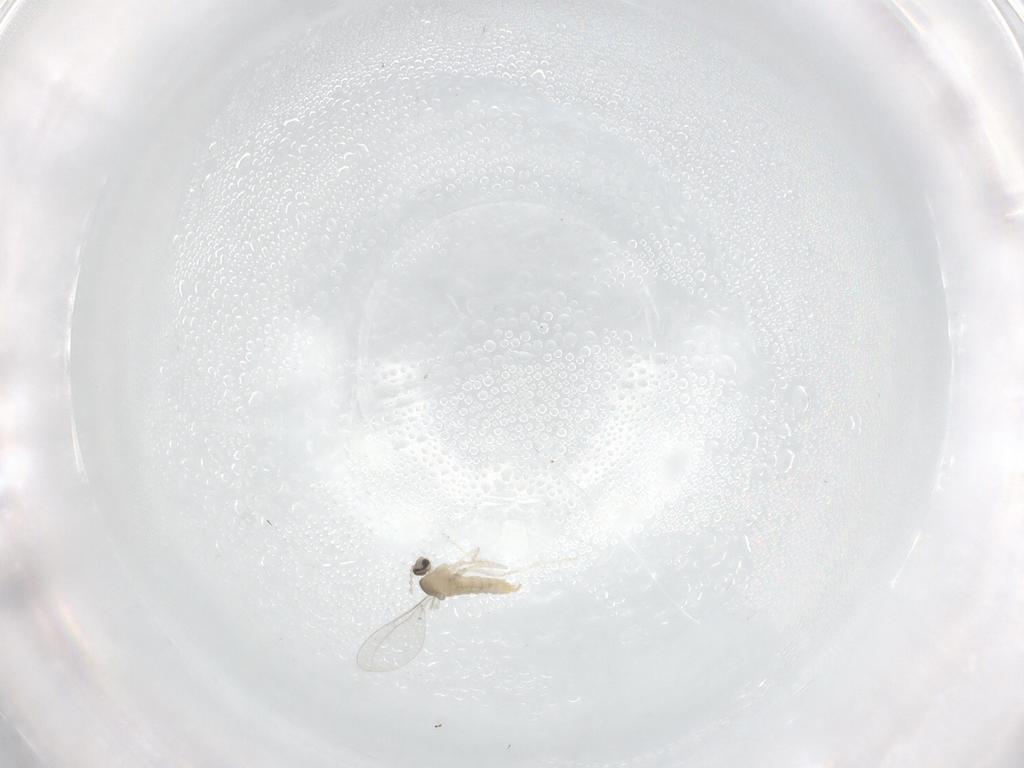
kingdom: Animalia
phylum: Arthropoda
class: Insecta
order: Diptera
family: Cecidomyiidae
